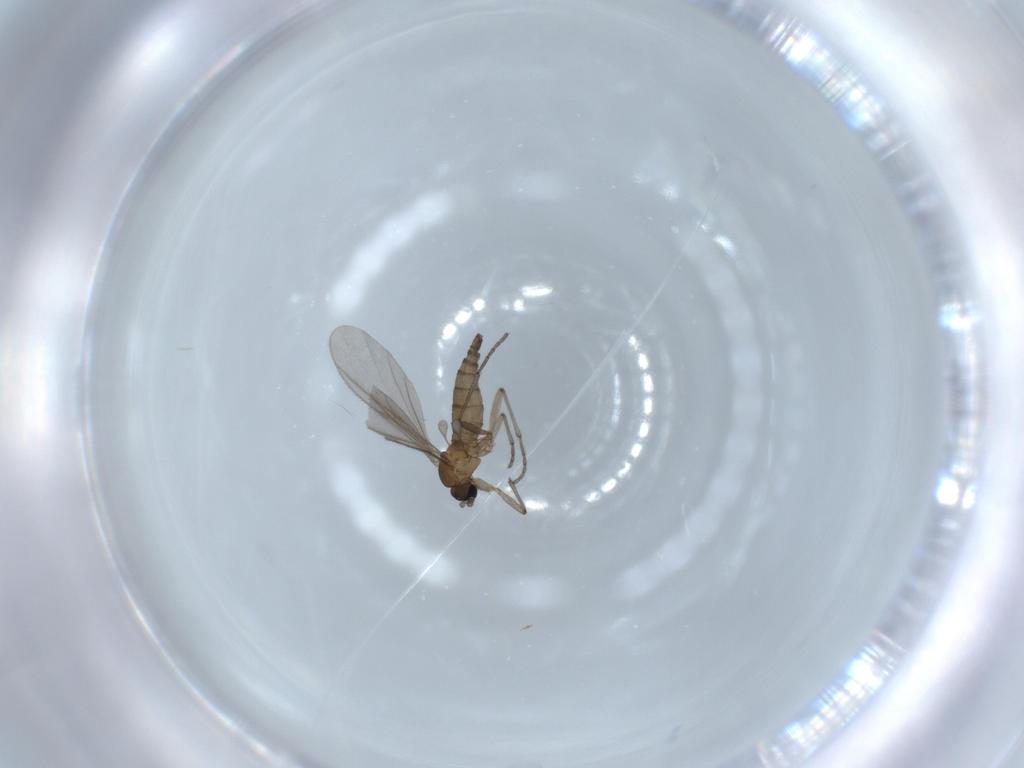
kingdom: Animalia
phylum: Arthropoda
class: Insecta
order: Diptera
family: Sciaridae
